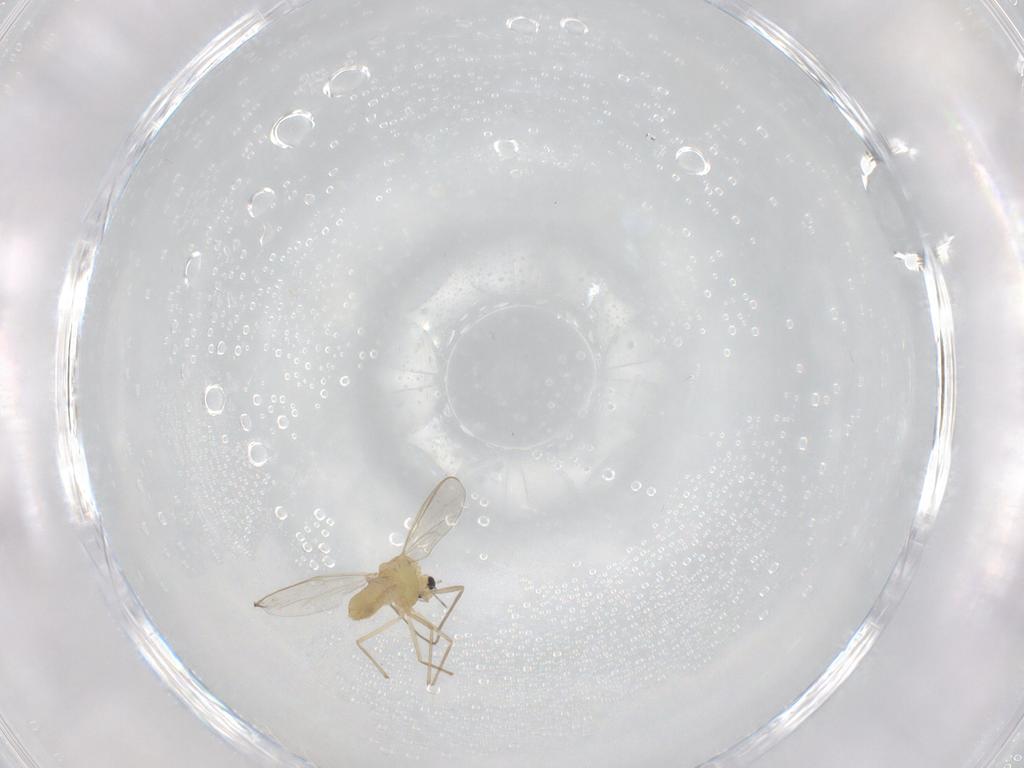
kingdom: Animalia
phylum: Arthropoda
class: Insecta
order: Diptera
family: Chironomidae
